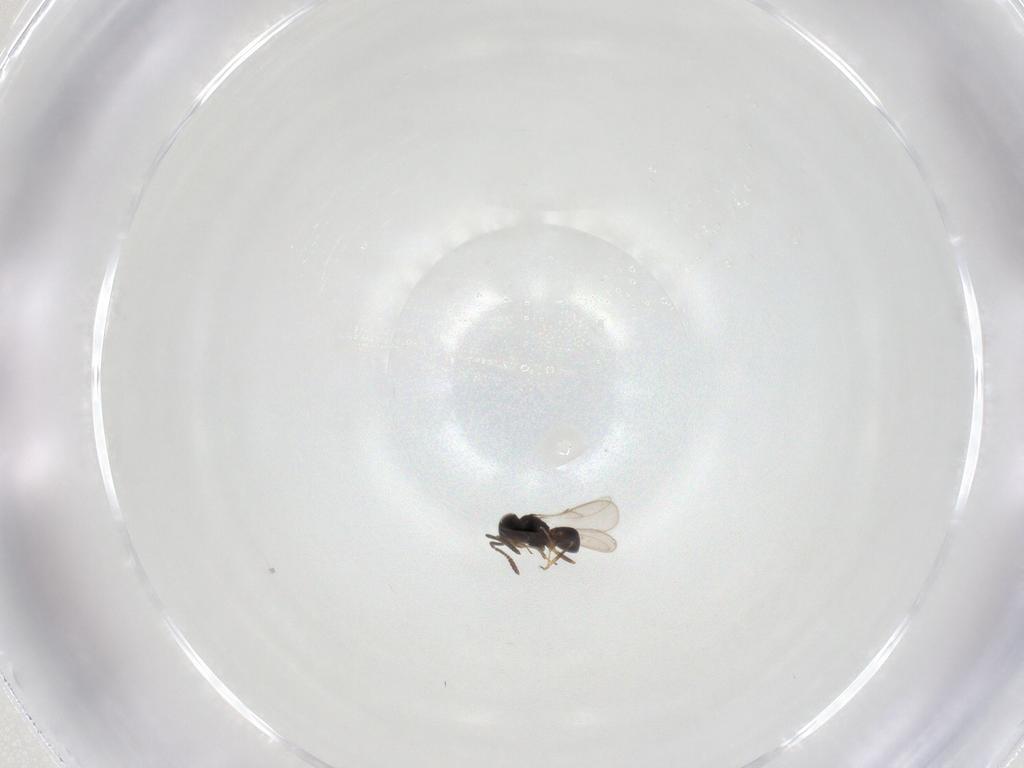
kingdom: Animalia
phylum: Arthropoda
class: Insecta
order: Hymenoptera
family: Scelionidae
